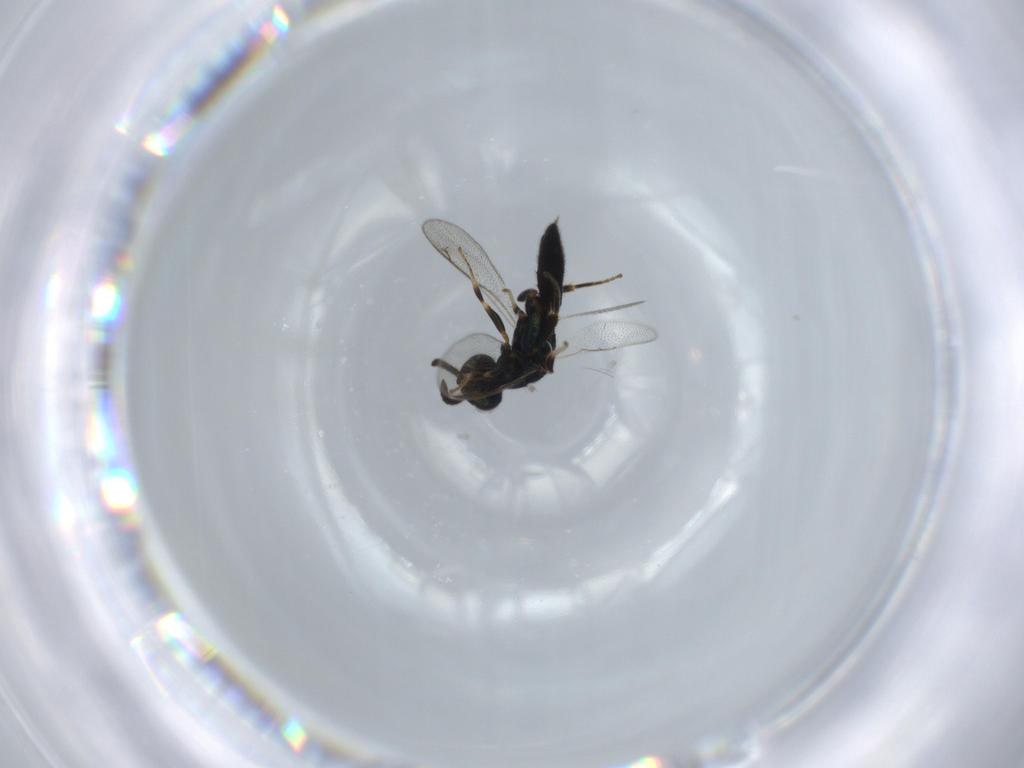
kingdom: Animalia
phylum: Arthropoda
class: Insecta
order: Hymenoptera
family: Cleonyminae
